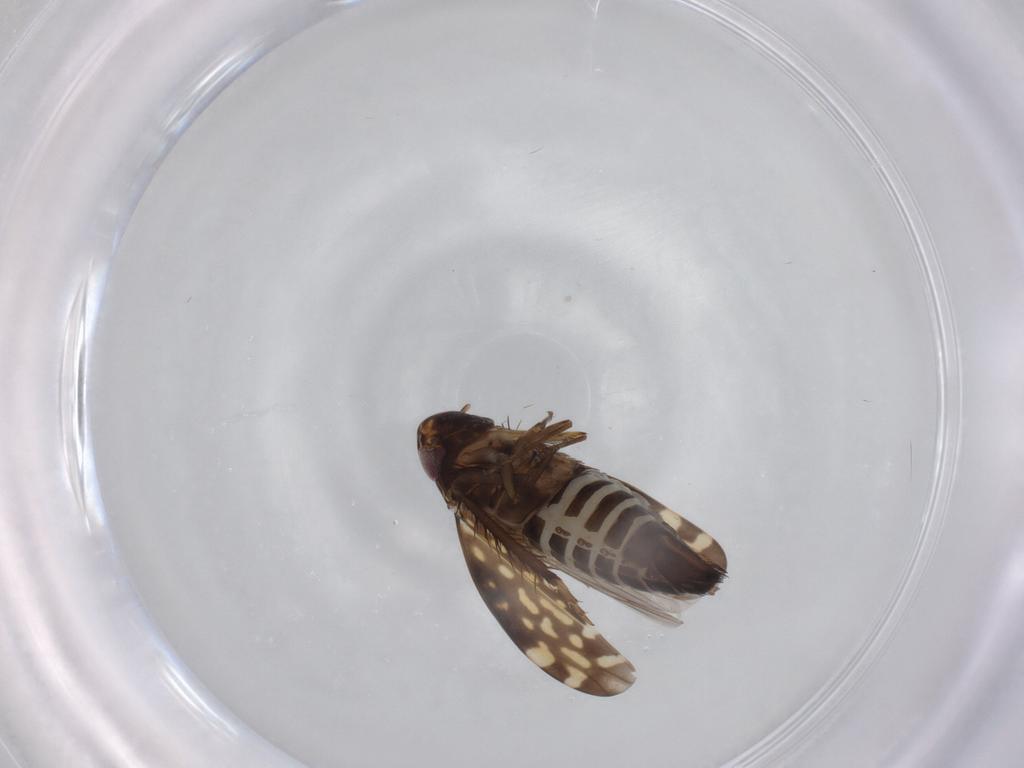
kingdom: Animalia
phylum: Arthropoda
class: Insecta
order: Hemiptera
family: Cicadellidae
